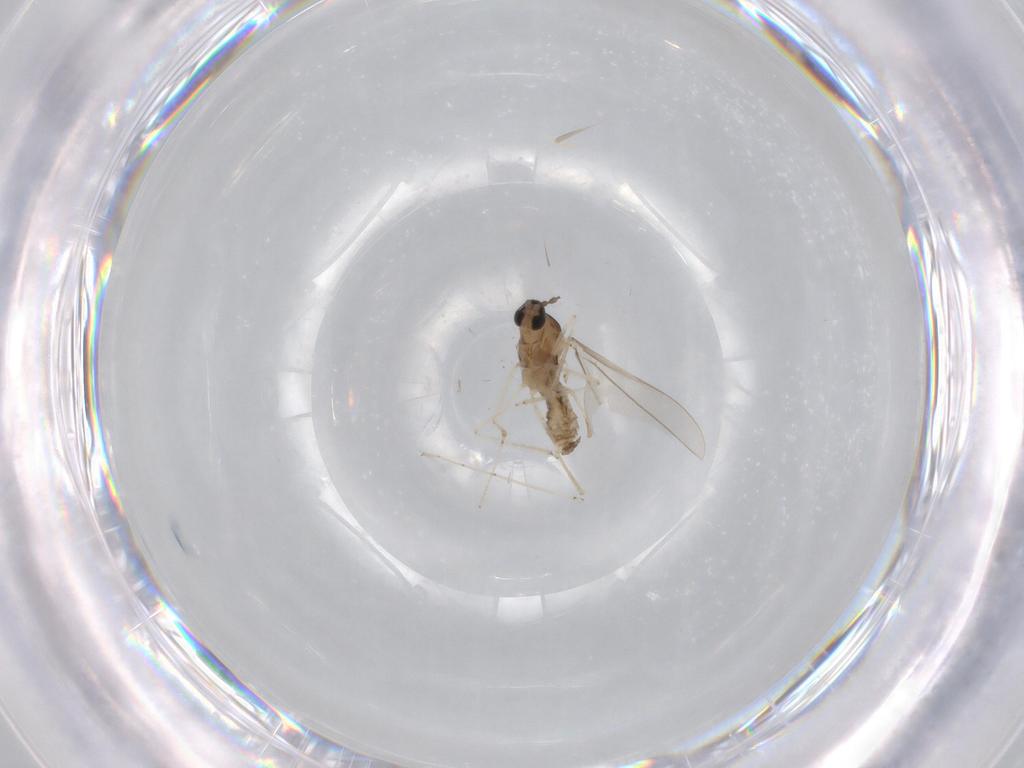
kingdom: Animalia
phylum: Arthropoda
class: Insecta
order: Diptera
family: Cecidomyiidae
